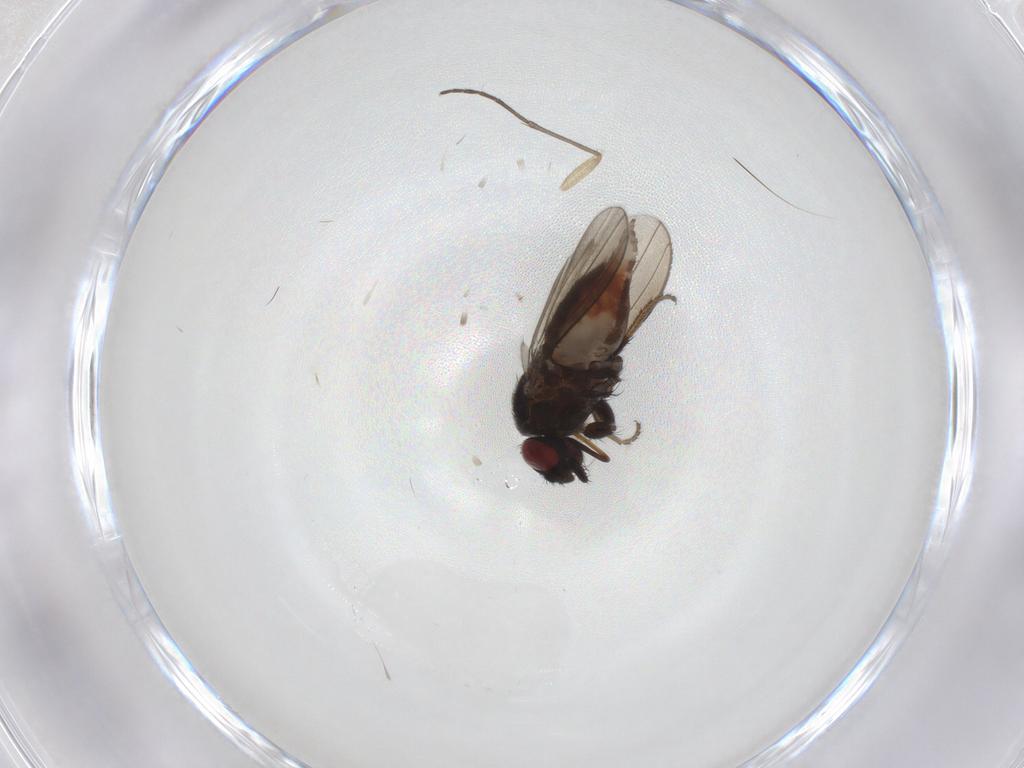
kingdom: Animalia
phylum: Arthropoda
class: Insecta
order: Diptera
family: Milichiidae
